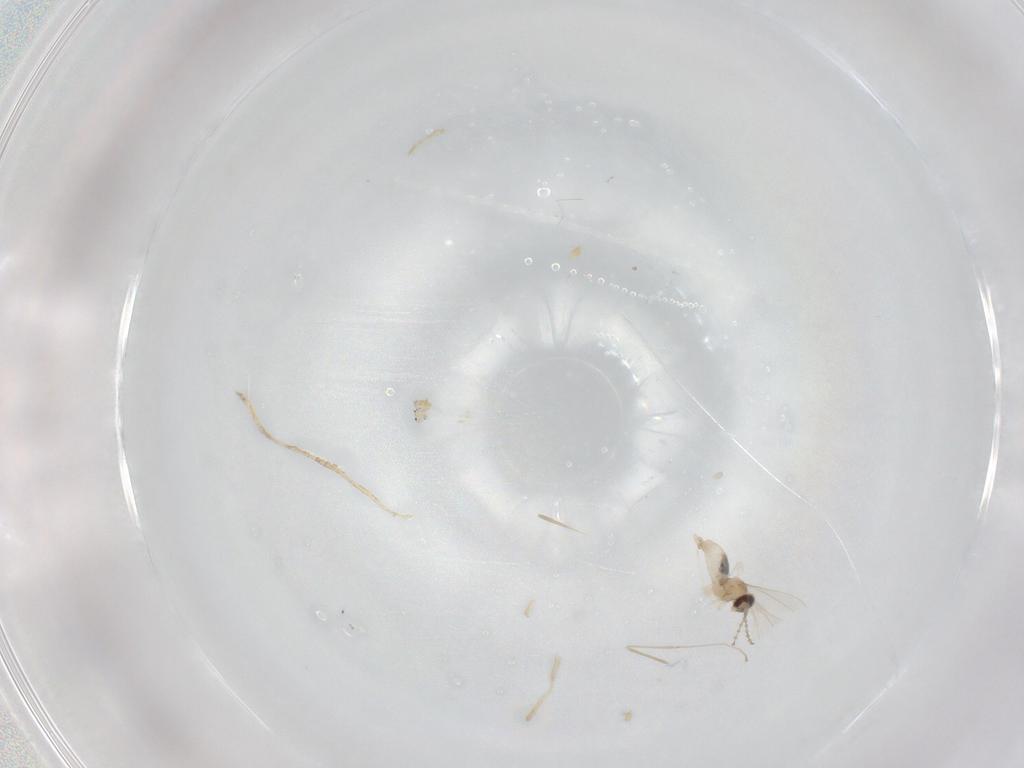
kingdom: Animalia
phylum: Arthropoda
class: Insecta
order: Diptera
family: Cecidomyiidae
